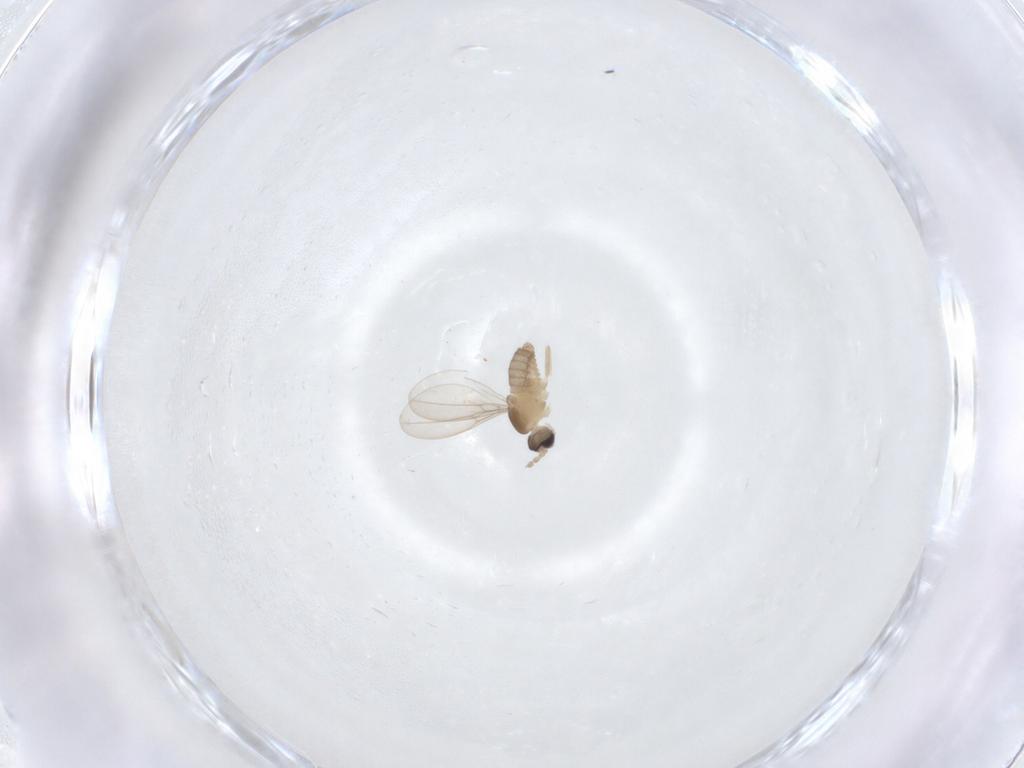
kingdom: Animalia
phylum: Arthropoda
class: Insecta
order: Diptera
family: Cecidomyiidae
